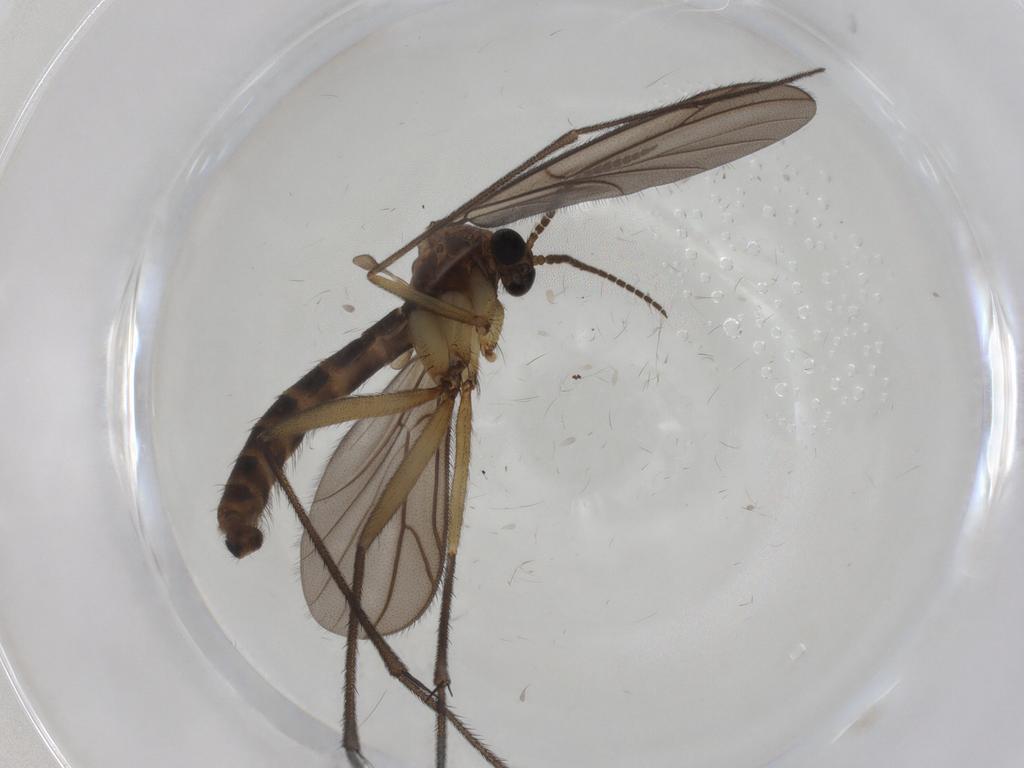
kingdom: Animalia
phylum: Arthropoda
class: Insecta
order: Diptera
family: Ditomyiidae
